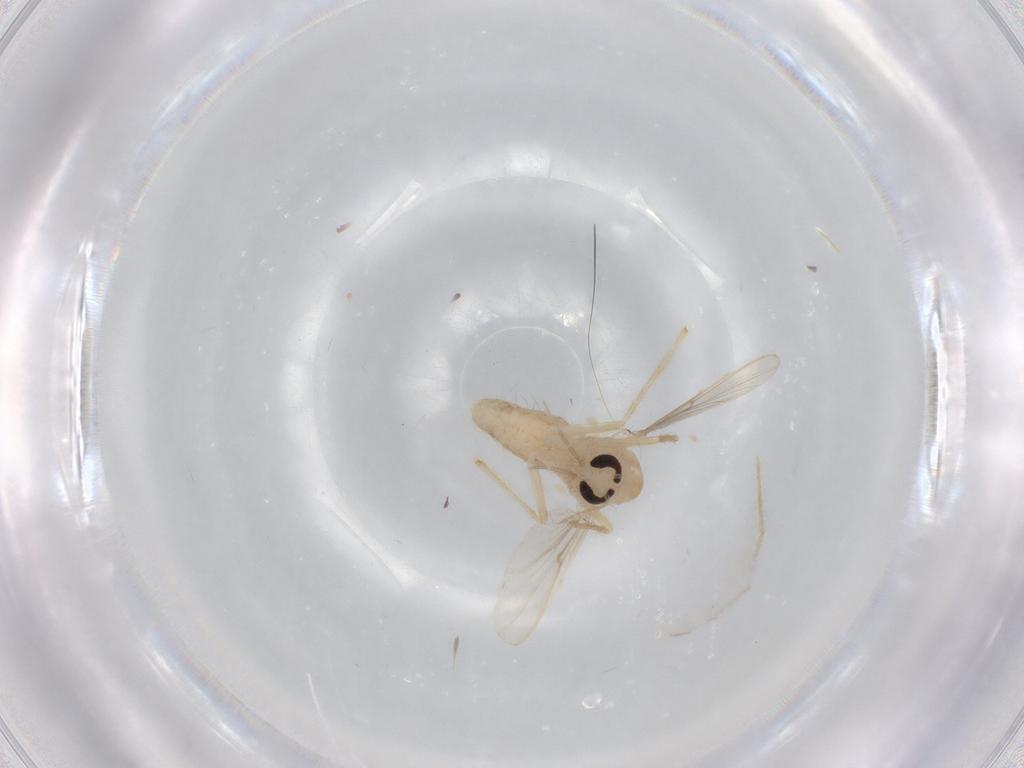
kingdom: Animalia
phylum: Arthropoda
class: Insecta
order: Diptera
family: Chironomidae
